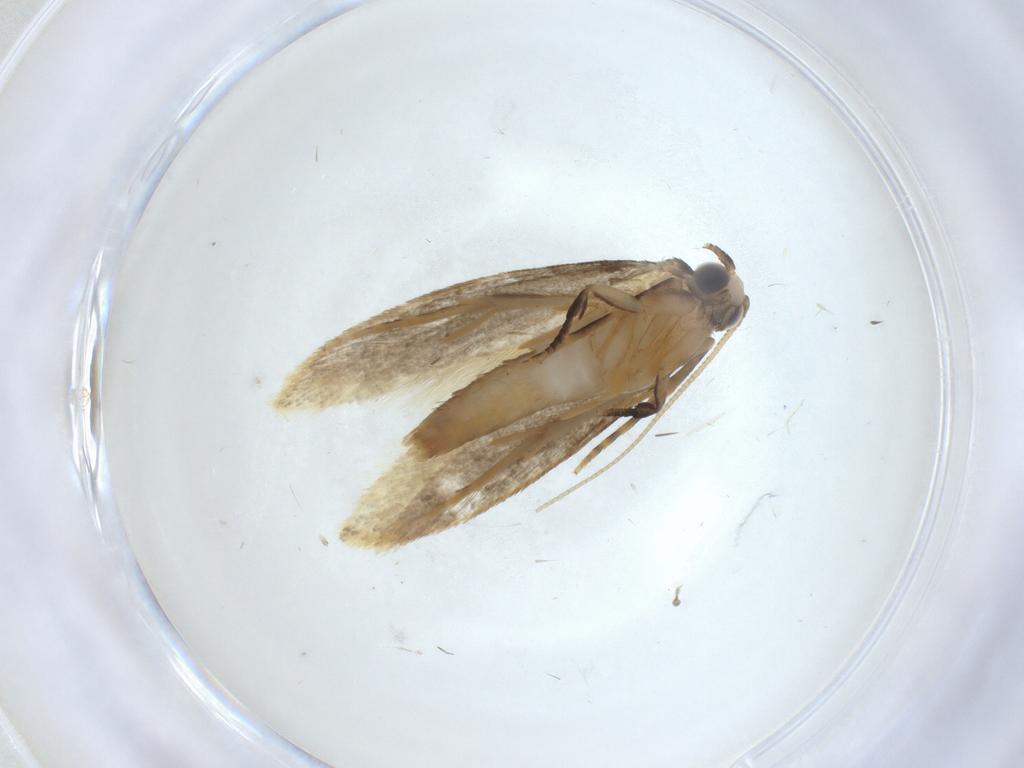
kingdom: Animalia
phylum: Arthropoda
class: Insecta
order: Lepidoptera
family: Gelechiidae
